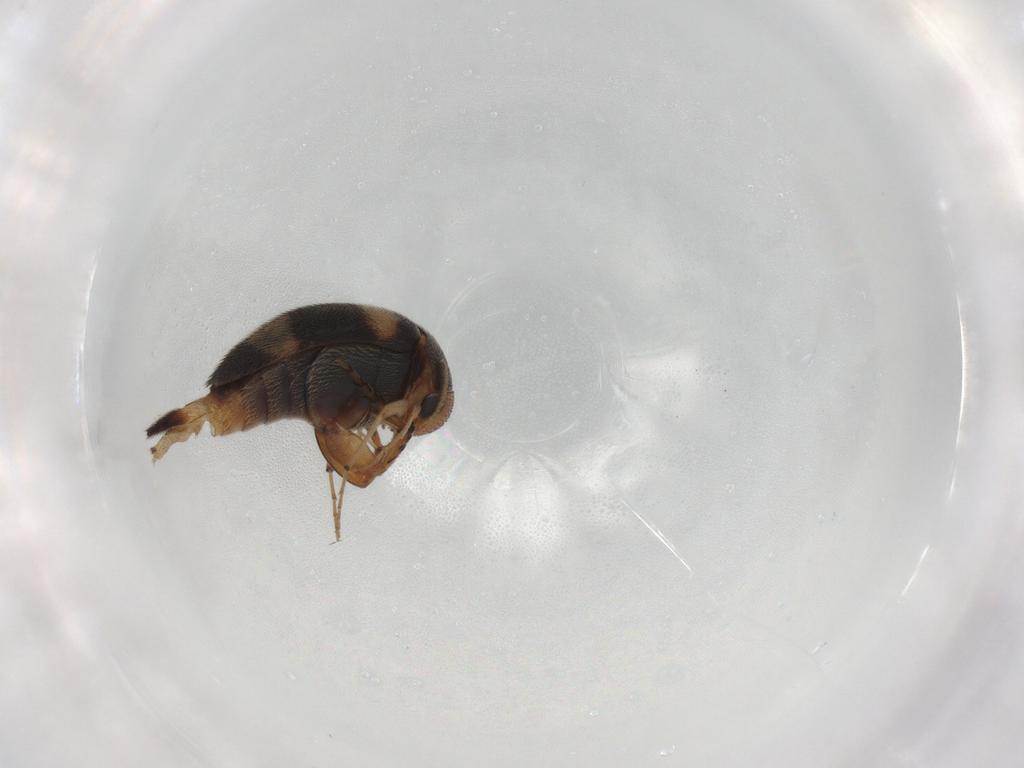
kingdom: Animalia
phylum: Arthropoda
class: Insecta
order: Coleoptera
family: Mordellidae
